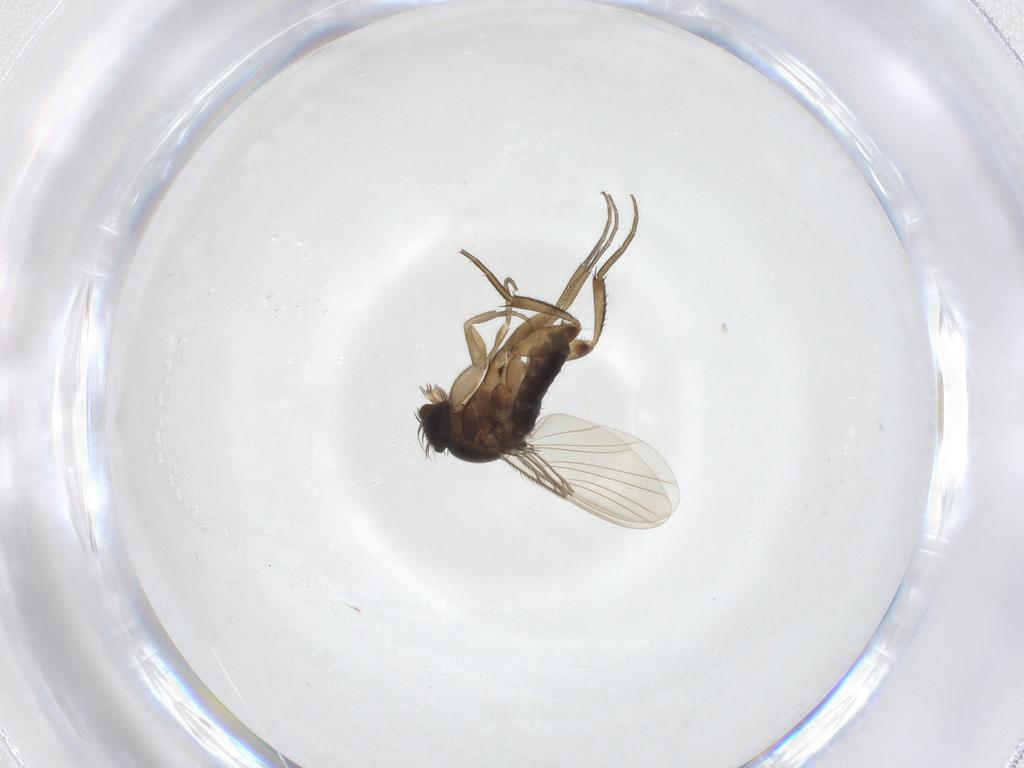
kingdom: Animalia
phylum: Arthropoda
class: Insecta
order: Diptera
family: Phoridae
